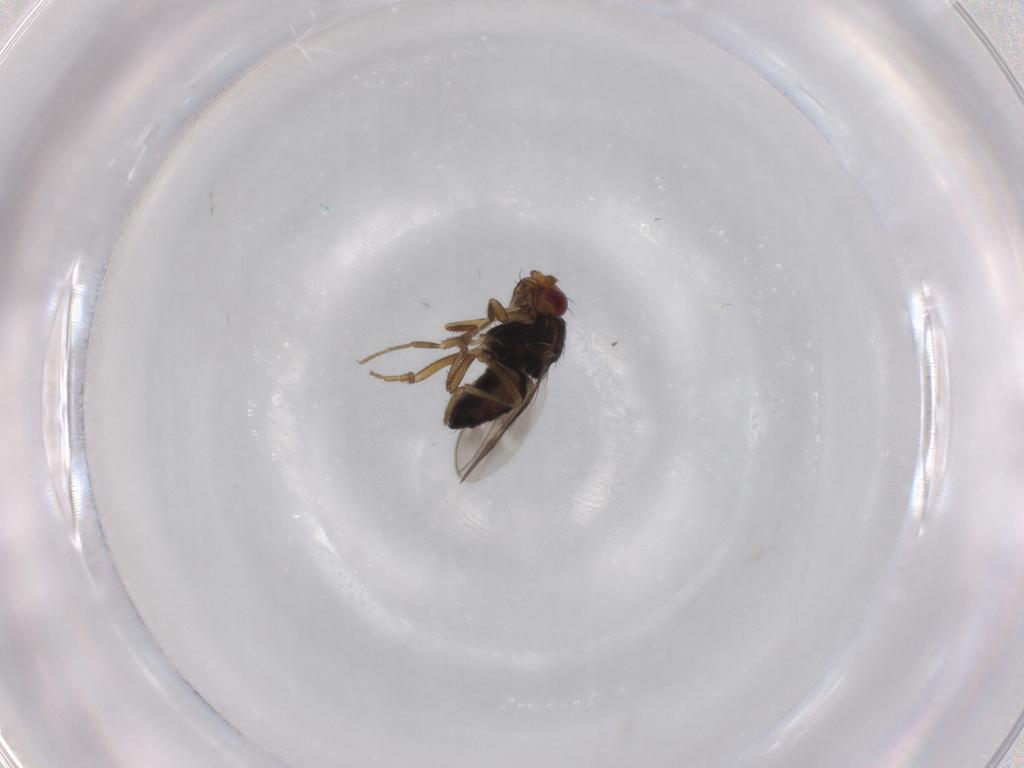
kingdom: Animalia
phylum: Arthropoda
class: Insecta
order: Diptera
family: Sphaeroceridae
